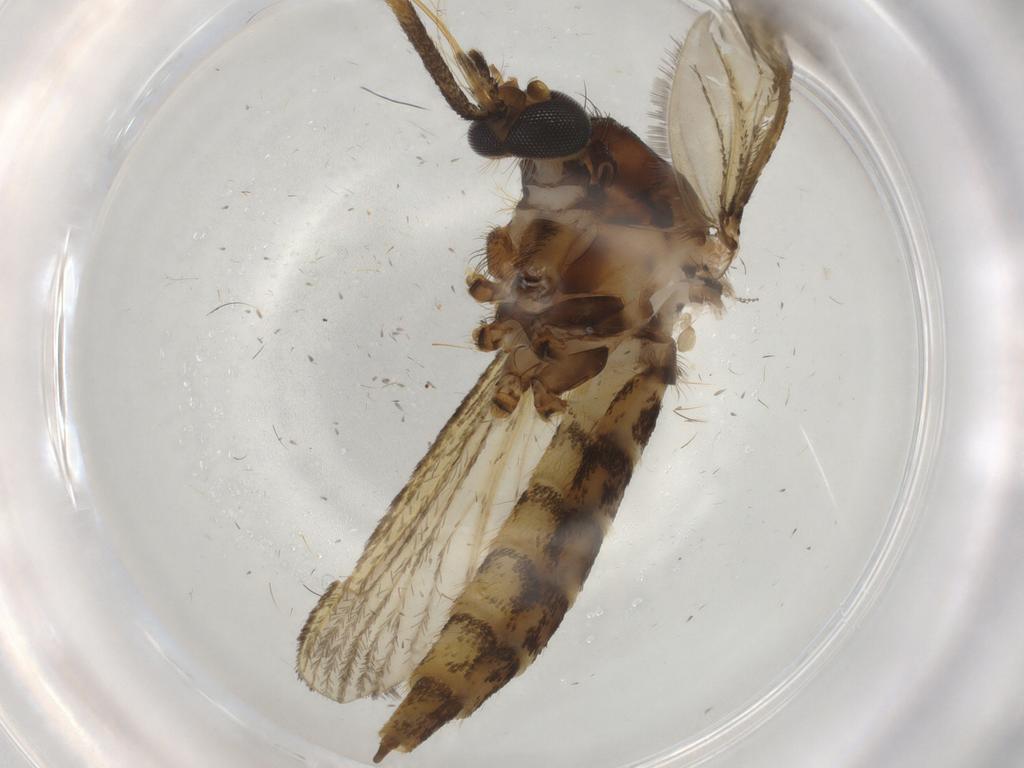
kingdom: Animalia
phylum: Arthropoda
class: Insecta
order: Diptera
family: Culicidae
